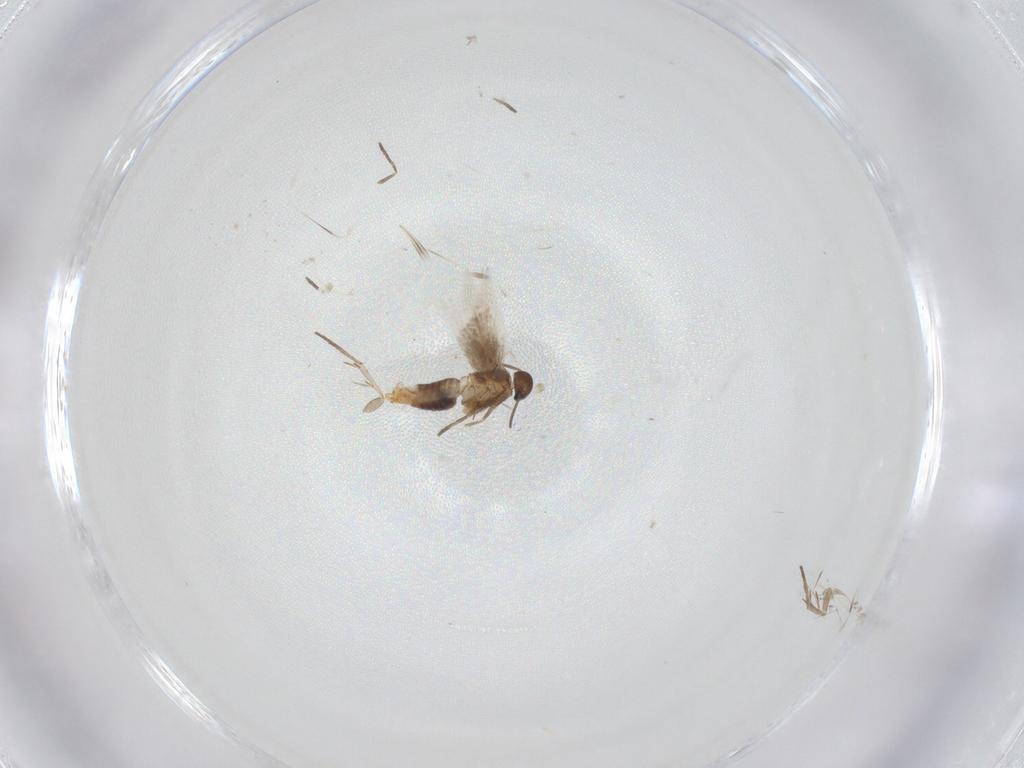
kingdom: Animalia
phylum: Arthropoda
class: Insecta
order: Lepidoptera
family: Heliozelidae
